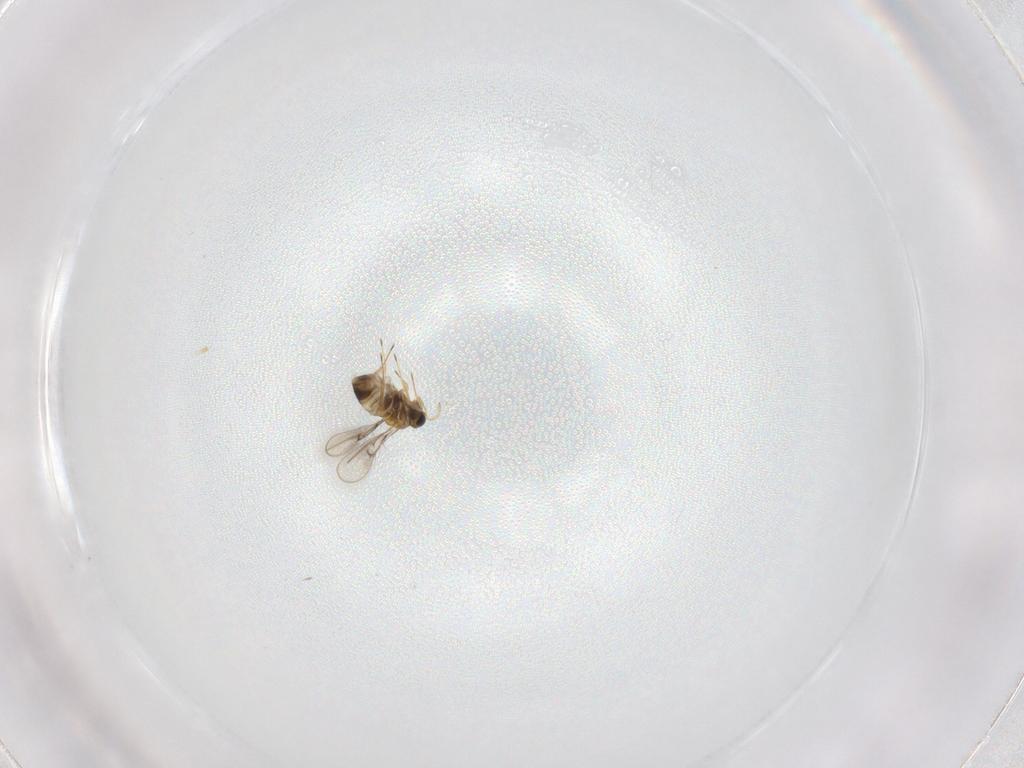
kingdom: Animalia
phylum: Arthropoda
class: Insecta
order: Hymenoptera
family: Trichogrammatidae
